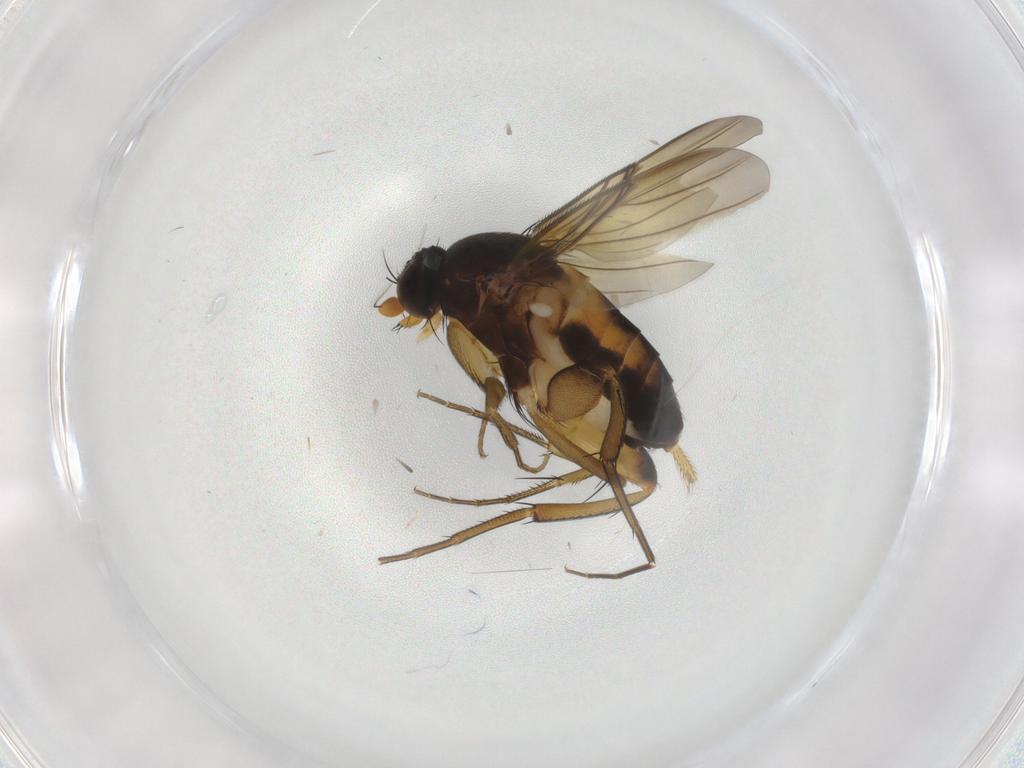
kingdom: Animalia
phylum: Arthropoda
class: Insecta
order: Diptera
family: Phoridae
